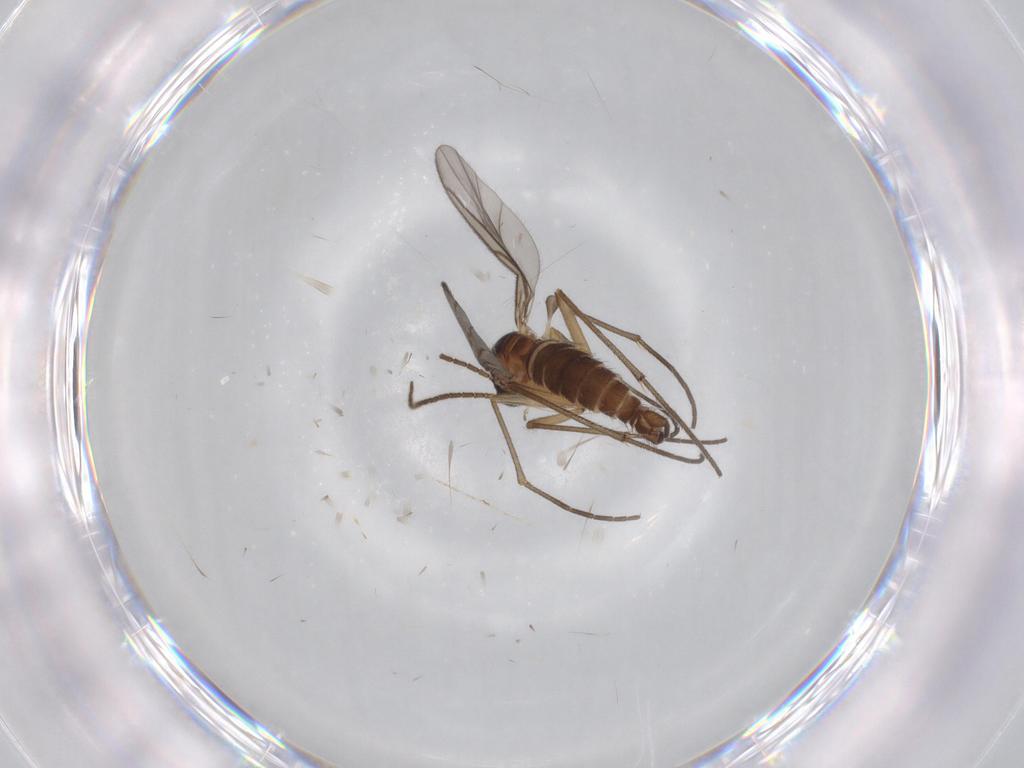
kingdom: Animalia
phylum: Arthropoda
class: Insecta
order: Diptera
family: Sciaridae
